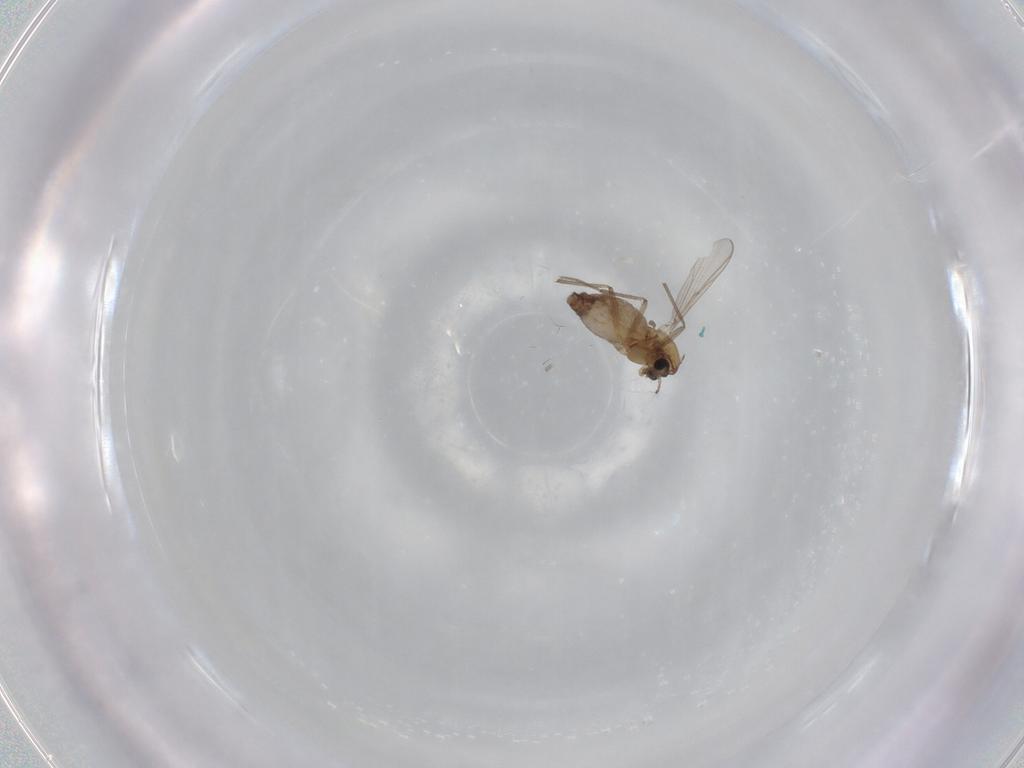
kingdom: Animalia
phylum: Arthropoda
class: Insecta
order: Diptera
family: Chironomidae
